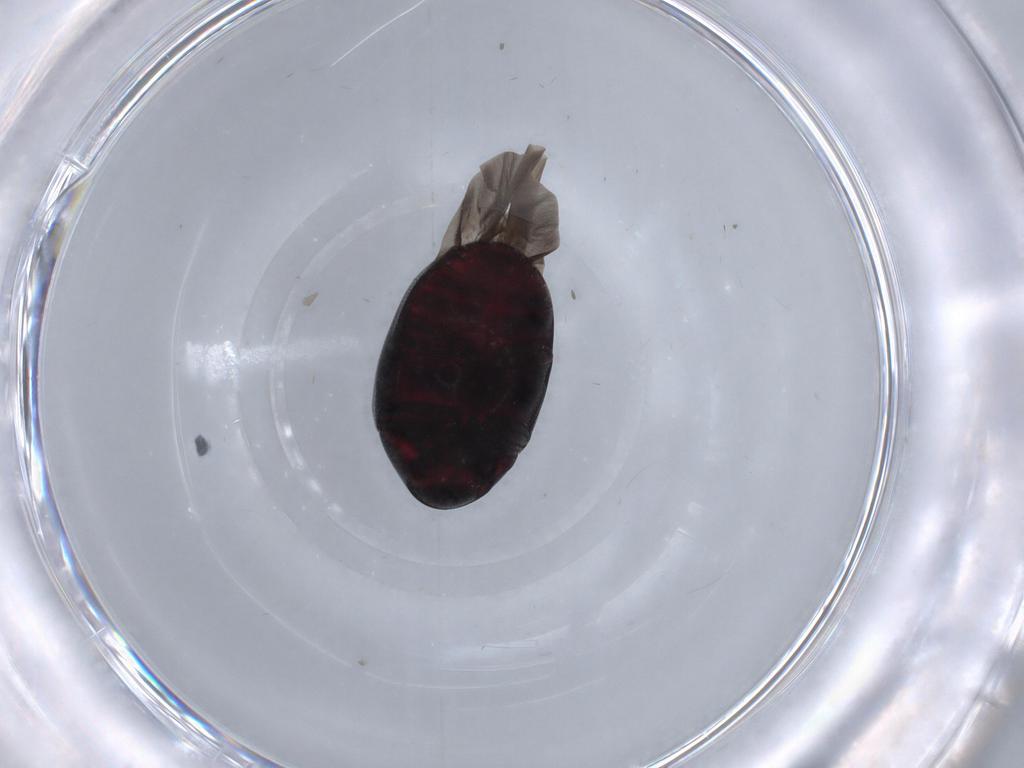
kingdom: Animalia
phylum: Arthropoda
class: Insecta
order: Coleoptera
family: Ptinidae
